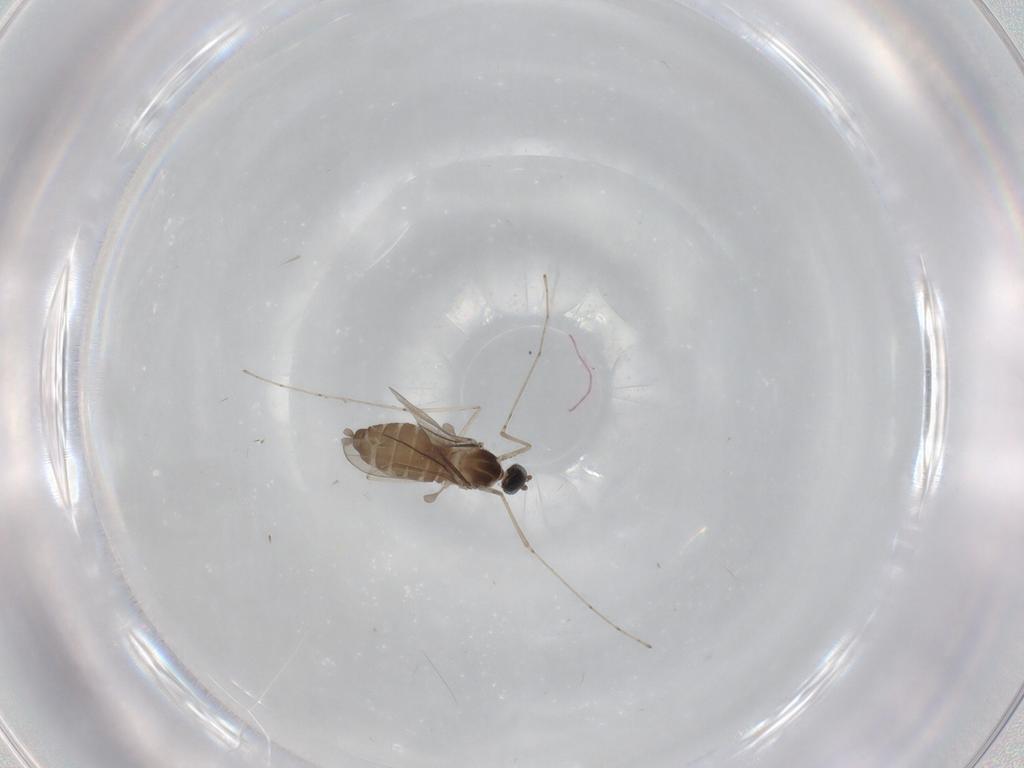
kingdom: Animalia
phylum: Arthropoda
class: Insecta
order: Diptera
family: Cecidomyiidae
